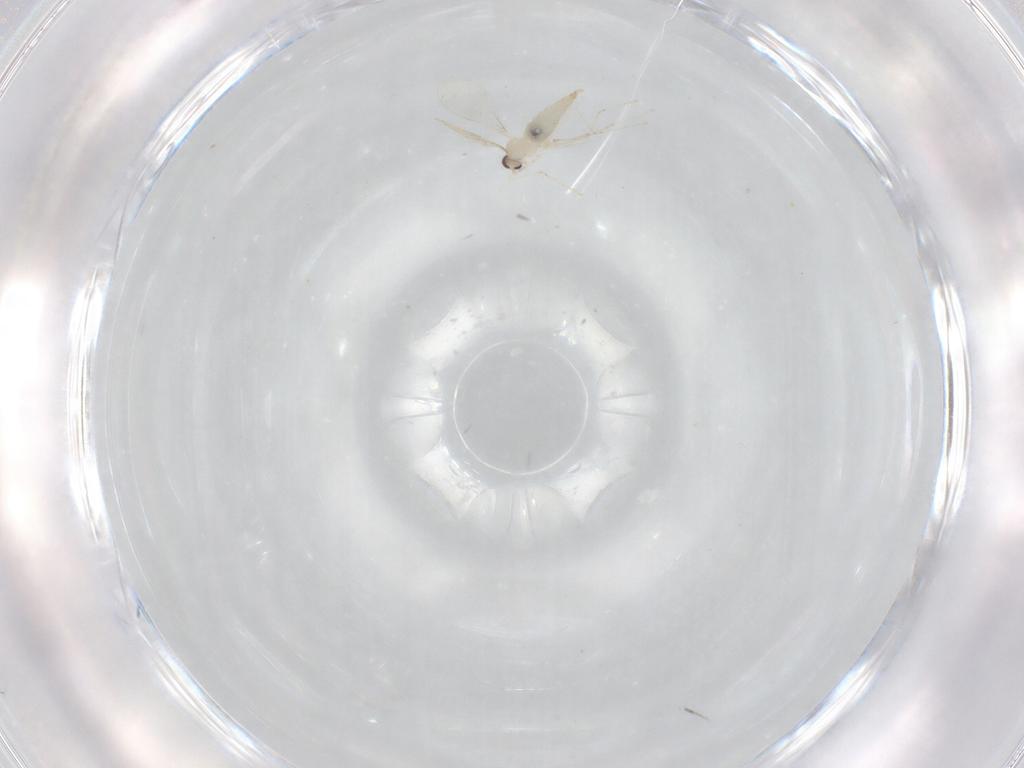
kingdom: Animalia
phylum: Arthropoda
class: Insecta
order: Diptera
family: Cecidomyiidae
